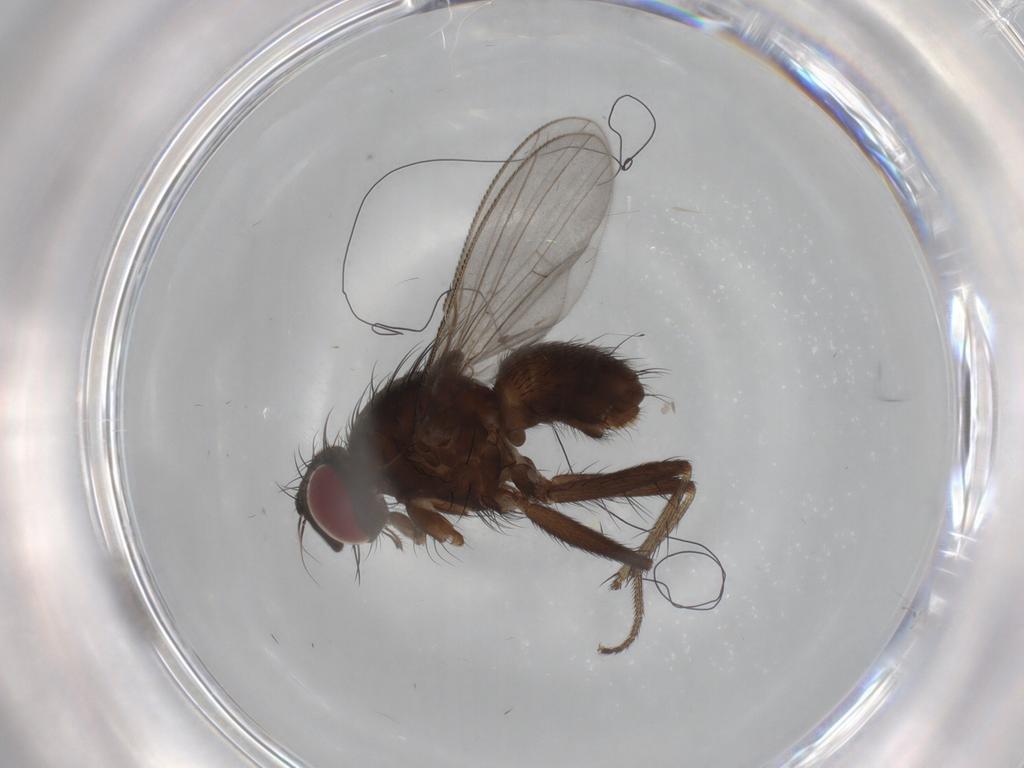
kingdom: Animalia
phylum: Arthropoda
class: Insecta
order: Diptera
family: Muscidae
